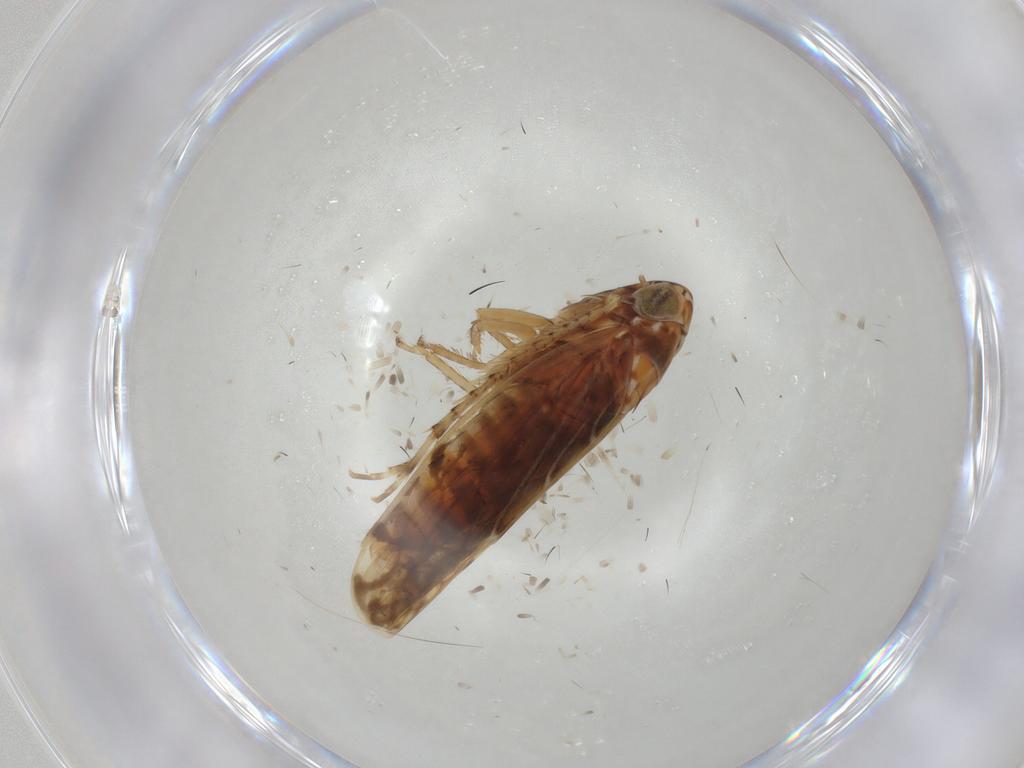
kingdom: Animalia
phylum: Arthropoda
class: Insecta
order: Hemiptera
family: Cicadellidae
